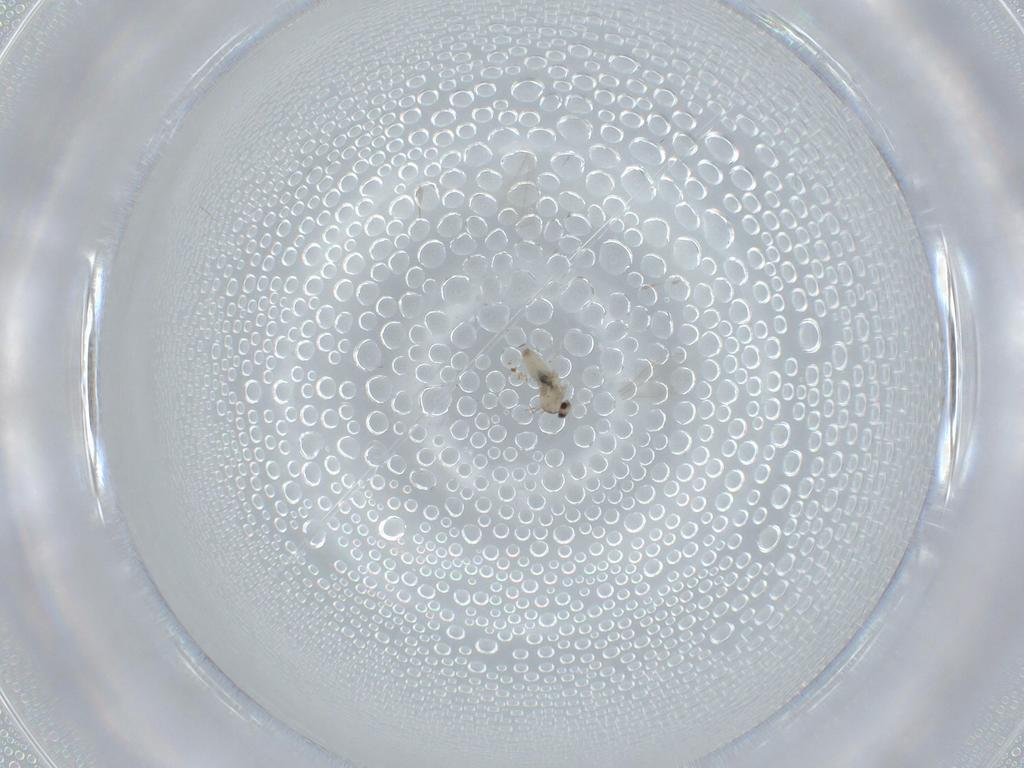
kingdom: Animalia
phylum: Arthropoda
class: Insecta
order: Diptera
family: Cecidomyiidae
